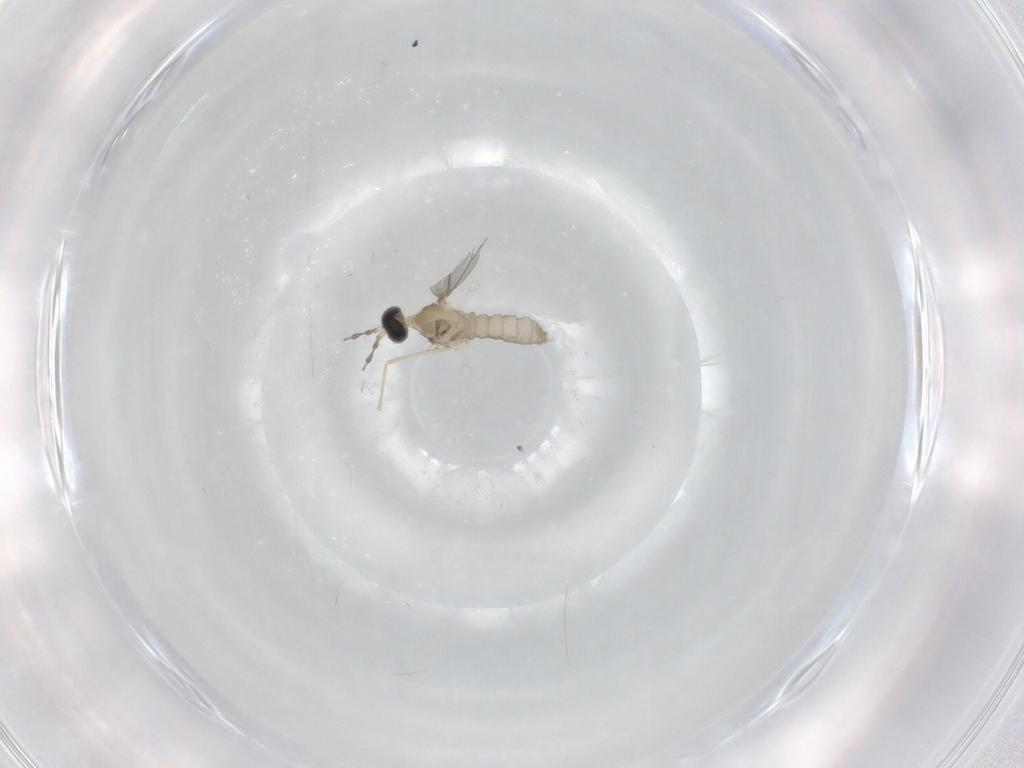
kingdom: Animalia
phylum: Arthropoda
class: Insecta
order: Diptera
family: Cecidomyiidae
